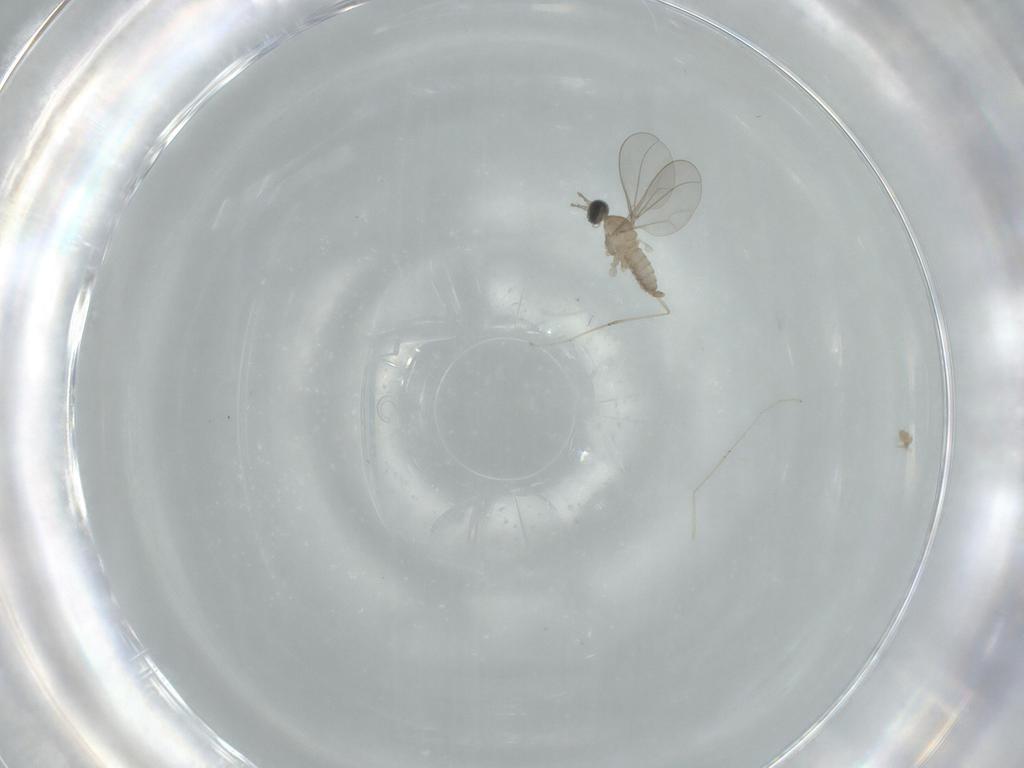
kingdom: Animalia
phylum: Arthropoda
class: Insecta
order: Diptera
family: Cecidomyiidae
